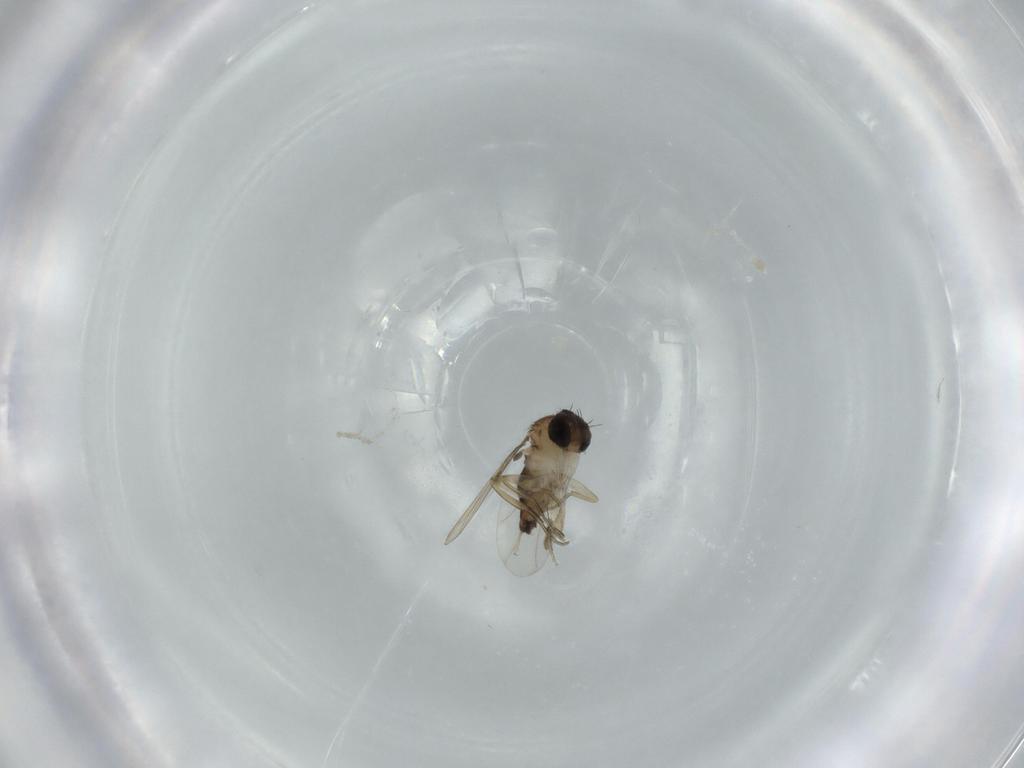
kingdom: Animalia
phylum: Arthropoda
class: Insecta
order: Diptera
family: Phoridae
